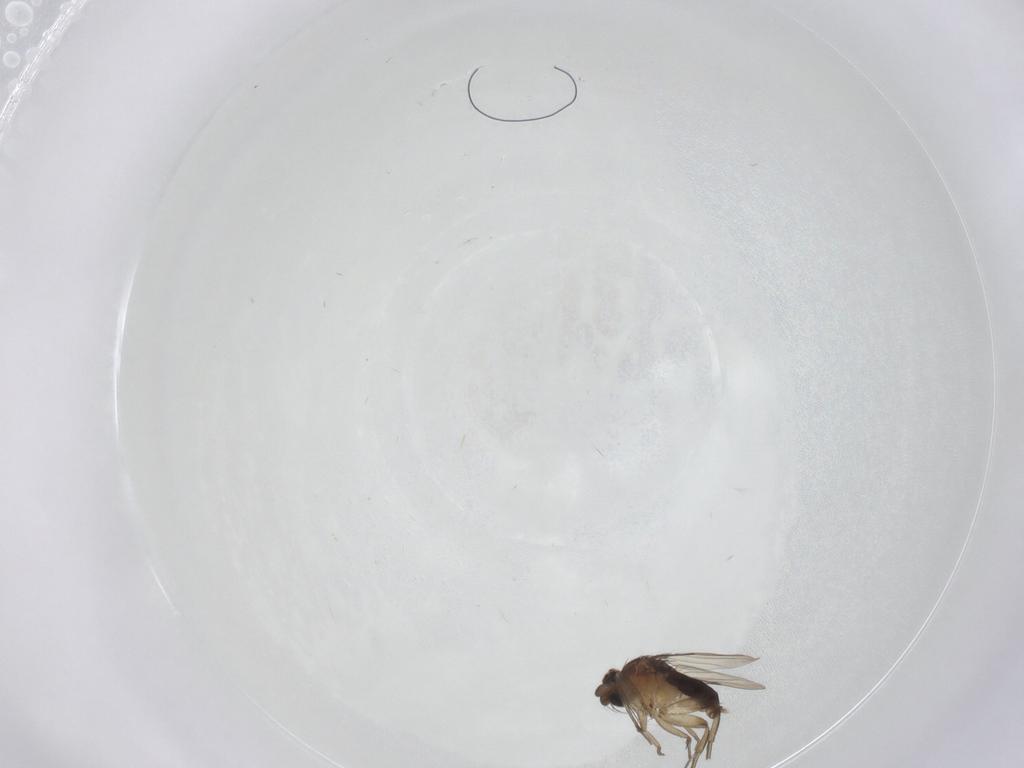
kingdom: Animalia
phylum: Arthropoda
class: Insecta
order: Diptera
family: Phoridae
